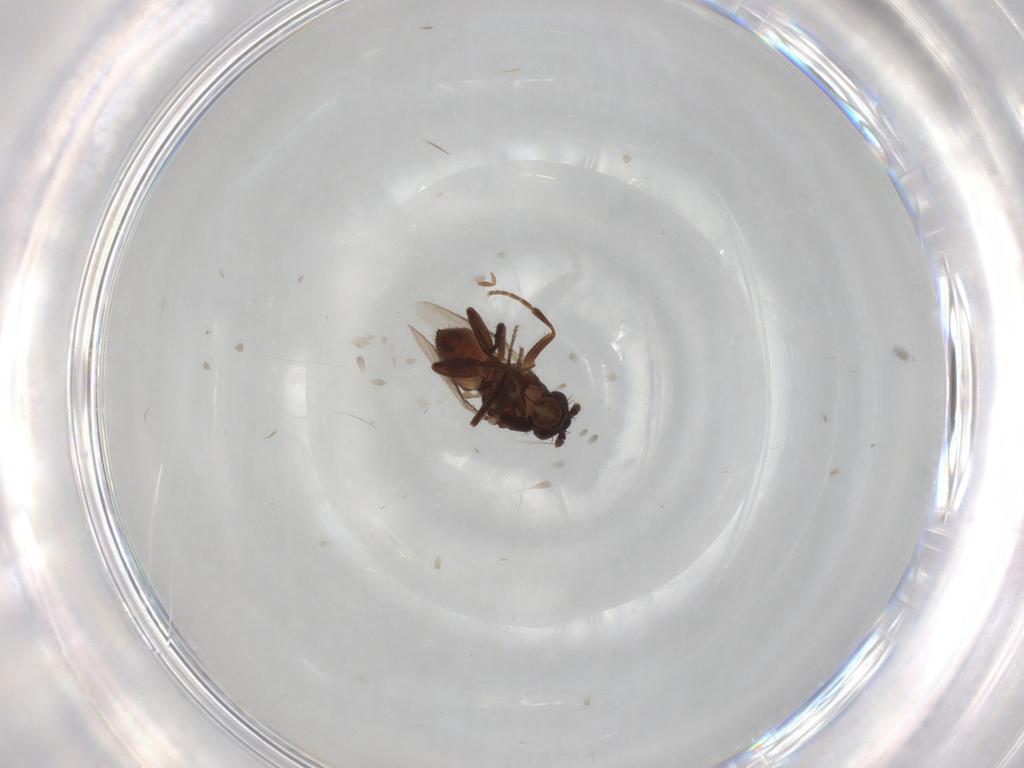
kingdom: Animalia
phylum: Arthropoda
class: Insecta
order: Diptera
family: Sphaeroceridae
